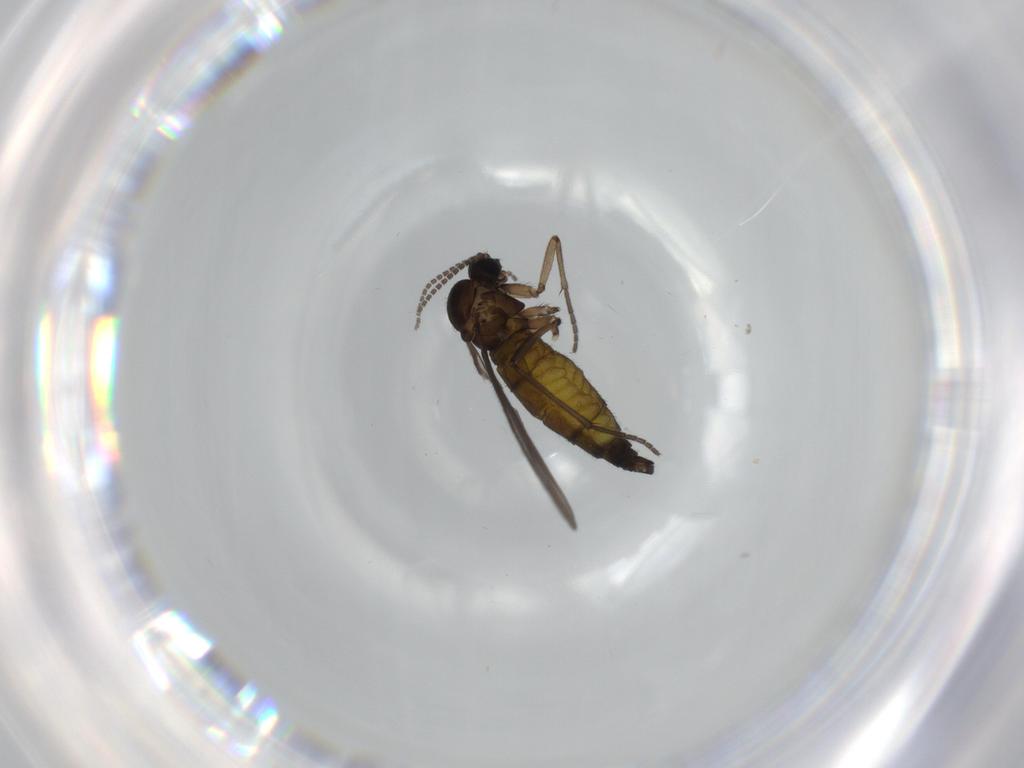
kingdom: Animalia
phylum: Arthropoda
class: Insecta
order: Diptera
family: Sciaridae
